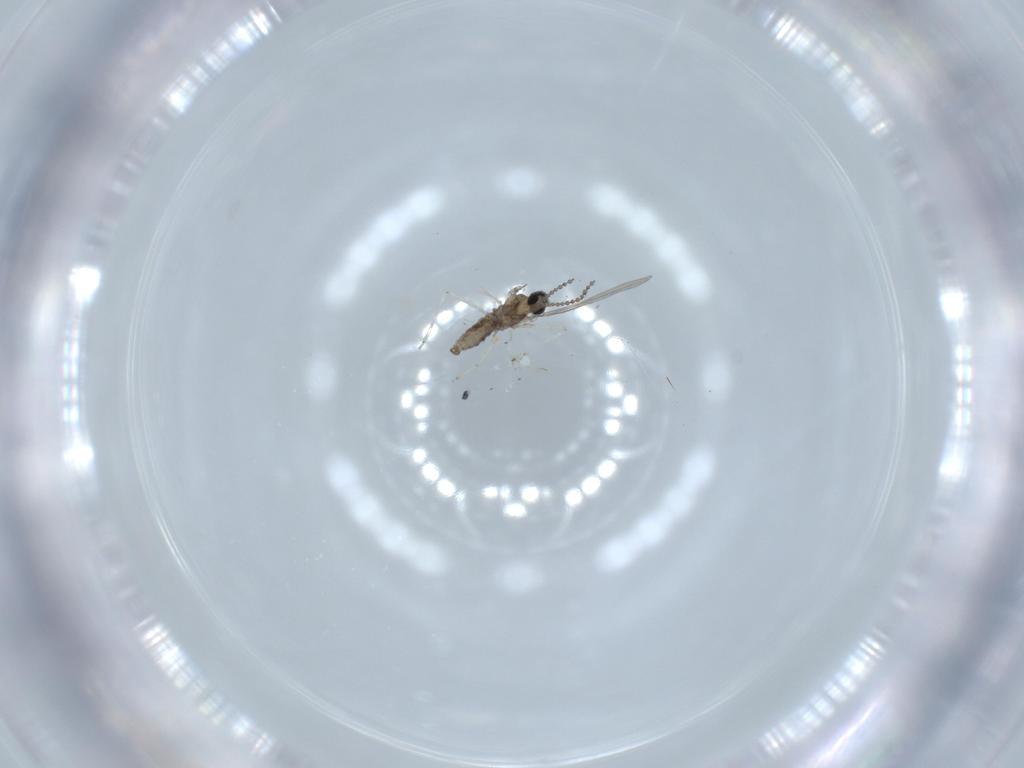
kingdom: Animalia
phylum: Arthropoda
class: Insecta
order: Diptera
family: Cecidomyiidae
